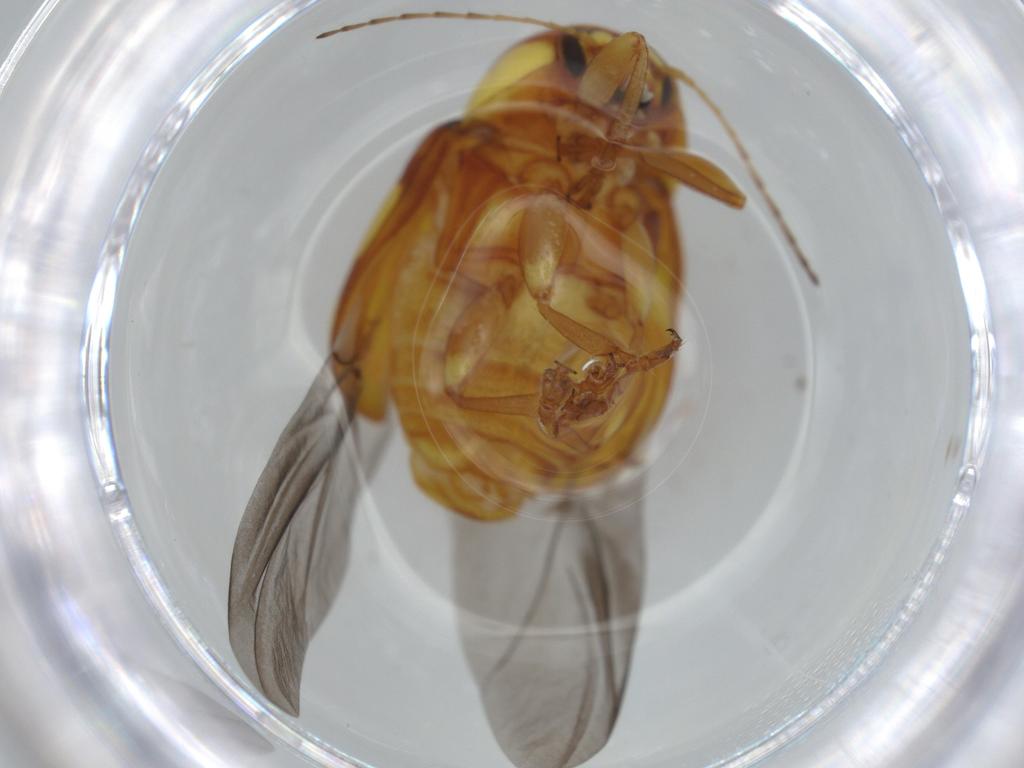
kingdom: Animalia
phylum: Arthropoda
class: Insecta
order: Coleoptera
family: Chrysomelidae
